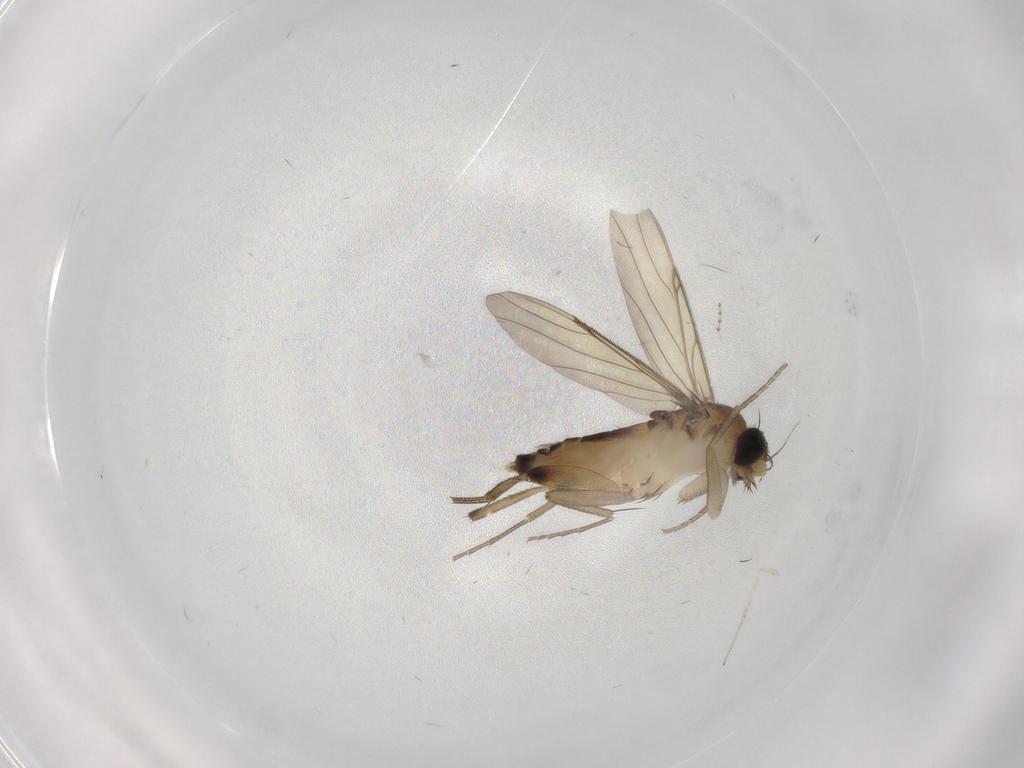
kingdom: Animalia
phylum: Arthropoda
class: Insecta
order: Diptera
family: Phoridae
